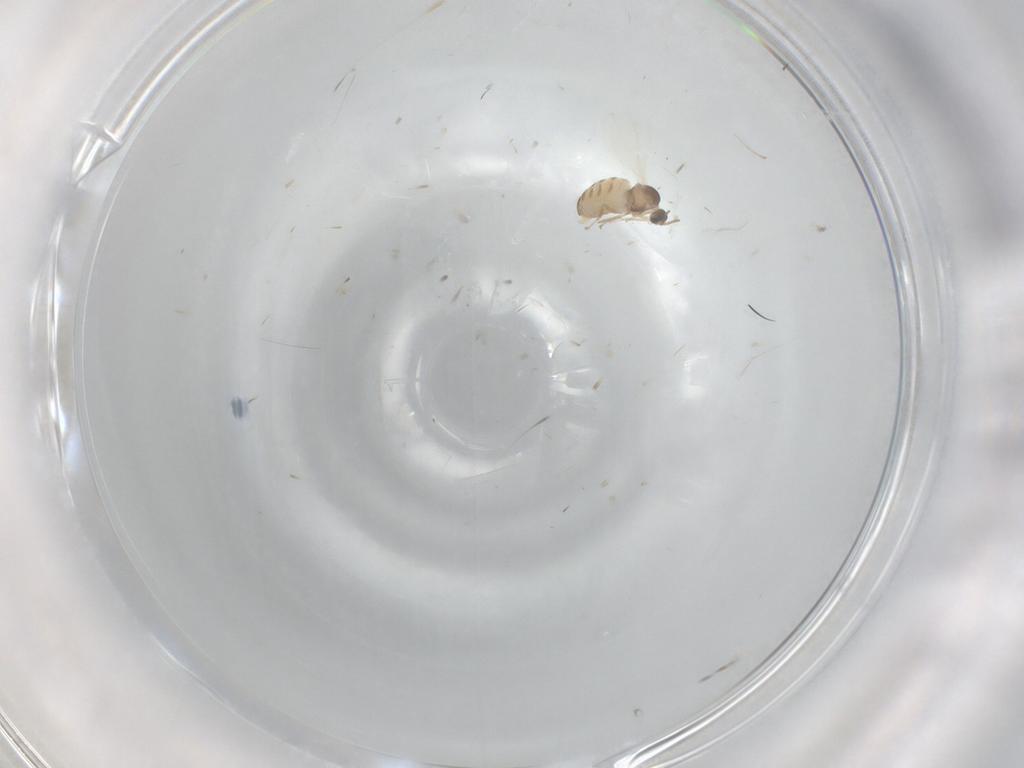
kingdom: Animalia
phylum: Arthropoda
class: Insecta
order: Diptera
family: Cecidomyiidae
